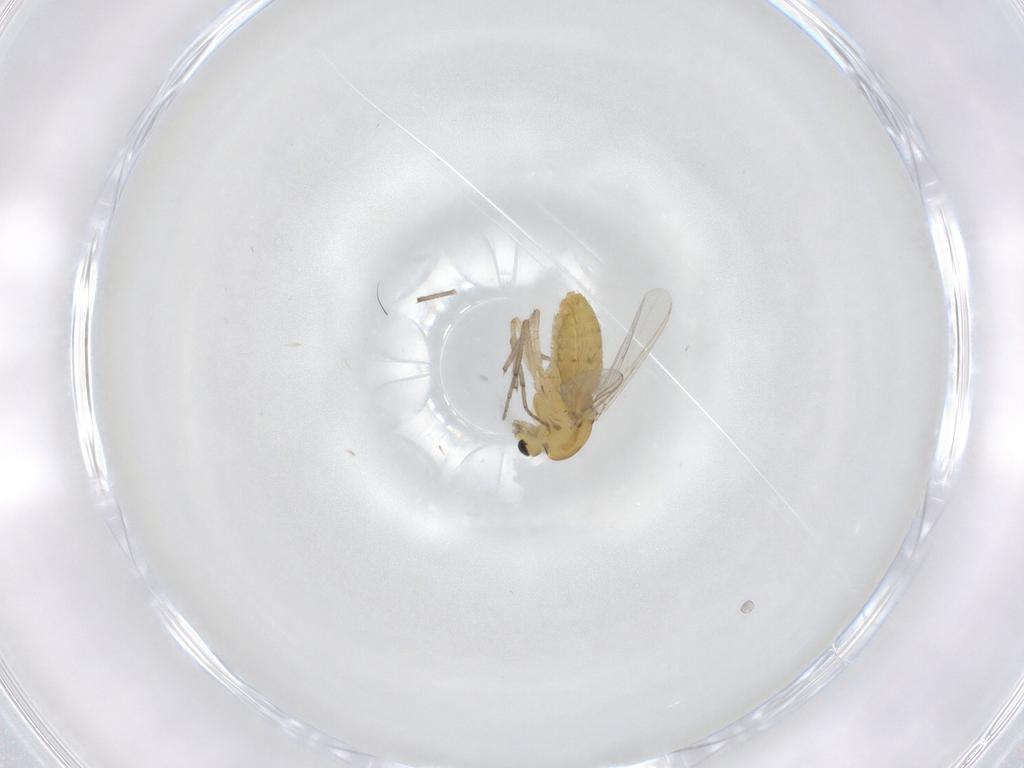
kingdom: Animalia
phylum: Arthropoda
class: Insecta
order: Diptera
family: Chironomidae
